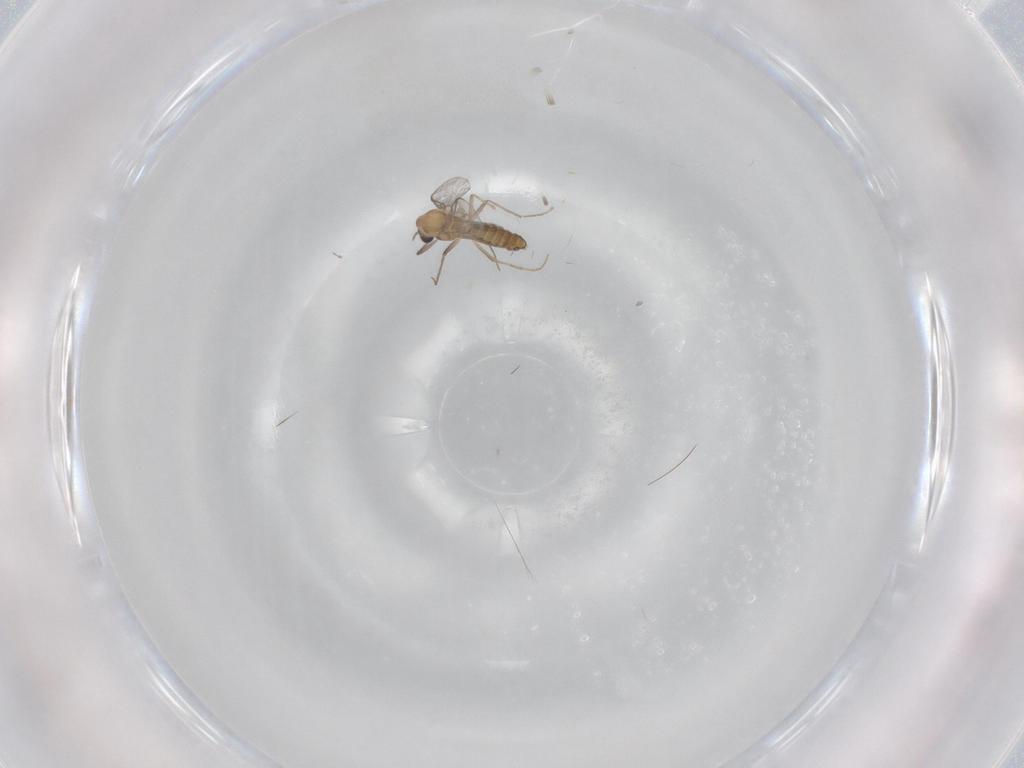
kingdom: Animalia
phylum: Arthropoda
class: Insecta
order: Diptera
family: Chironomidae
